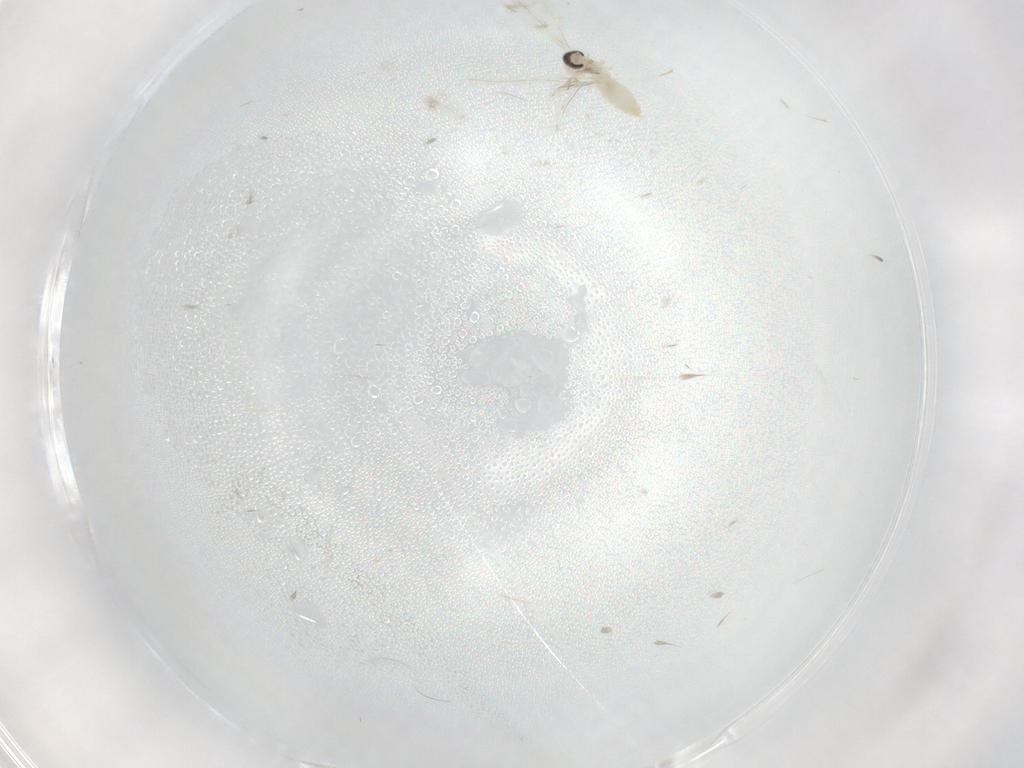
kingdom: Animalia
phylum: Arthropoda
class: Insecta
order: Diptera
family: Cecidomyiidae
